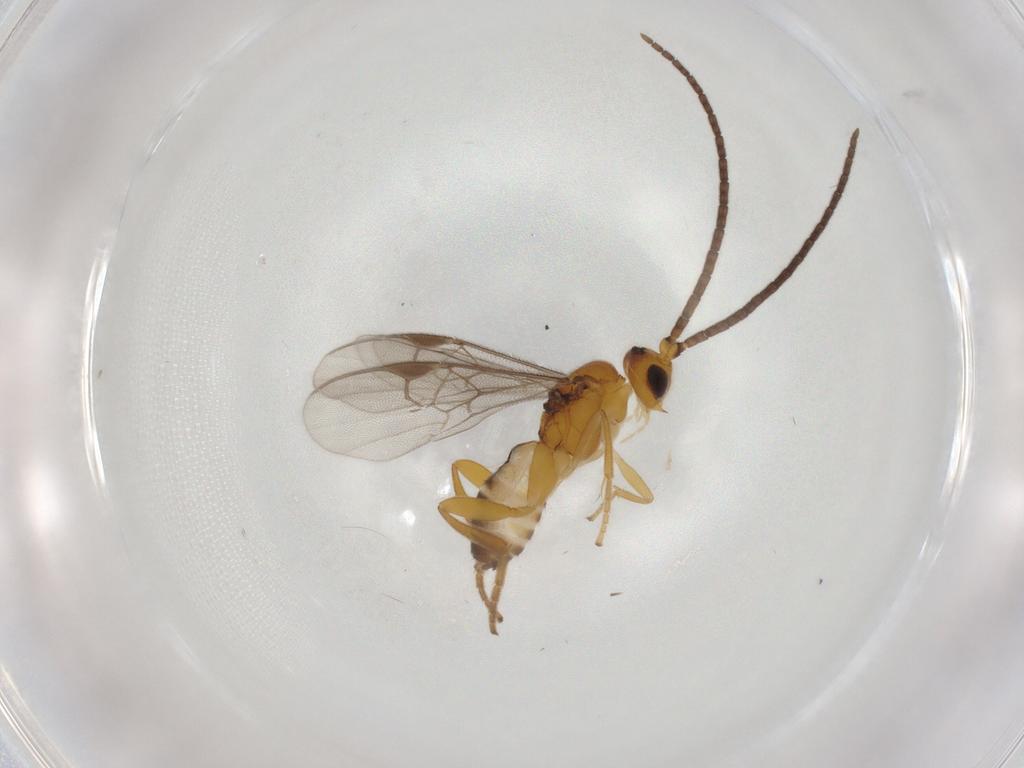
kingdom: Animalia
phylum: Arthropoda
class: Insecta
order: Hymenoptera
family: Braconidae
